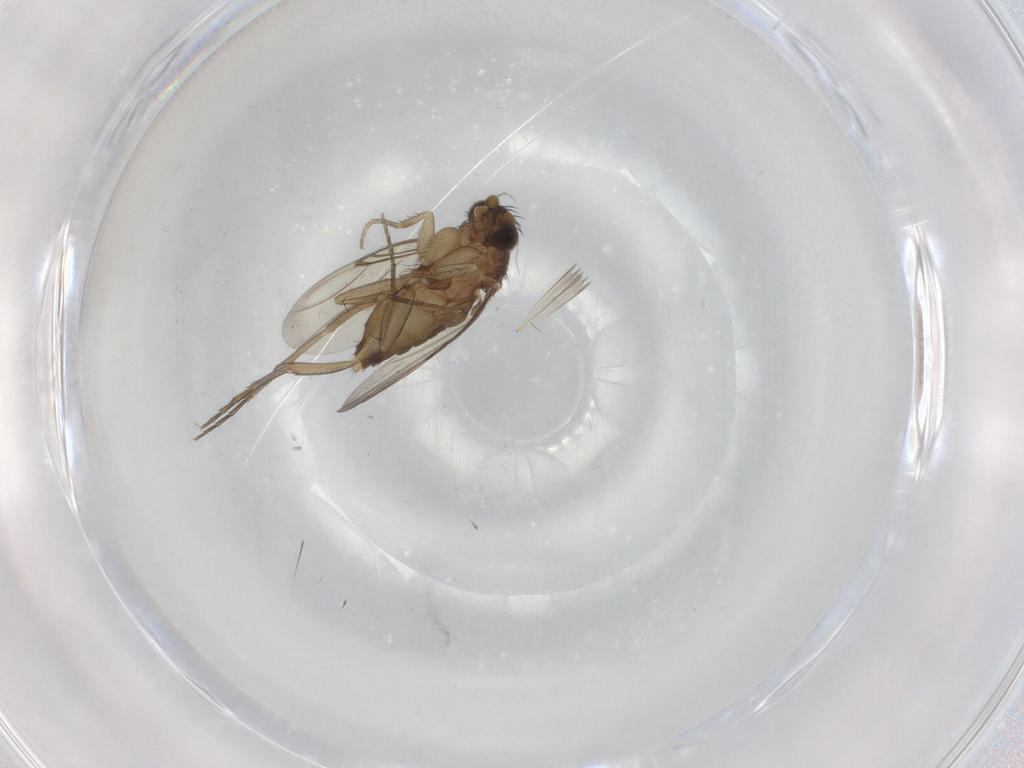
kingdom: Animalia
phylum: Arthropoda
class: Insecta
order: Diptera
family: Phoridae
